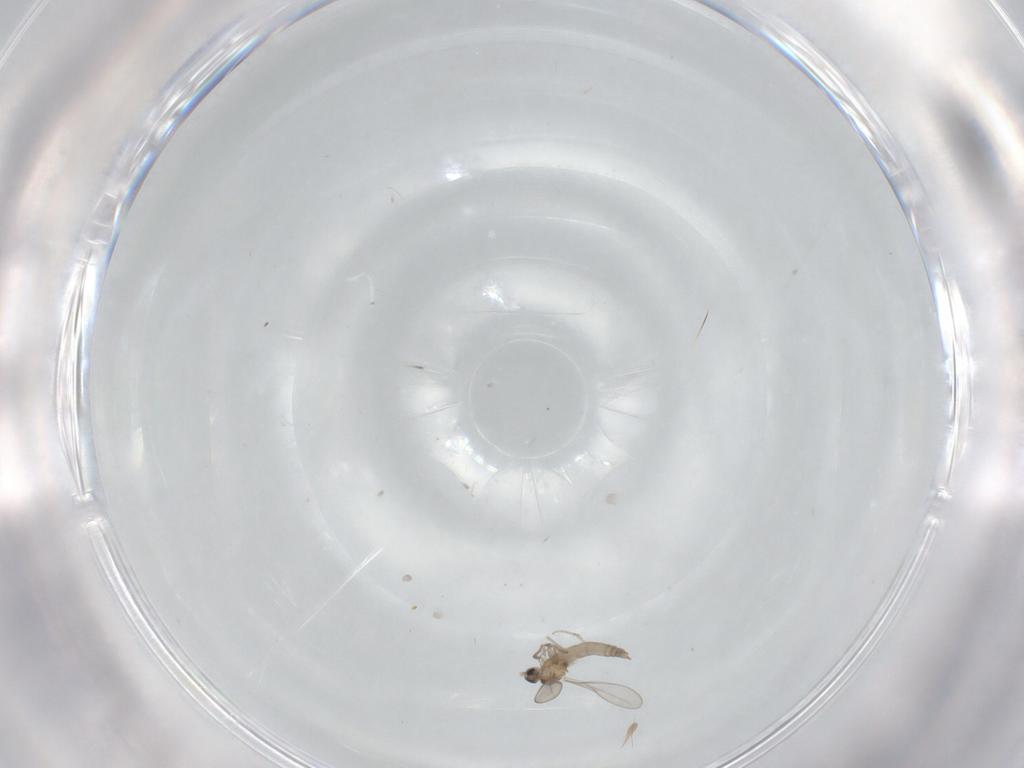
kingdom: Animalia
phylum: Arthropoda
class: Insecta
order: Diptera
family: Cecidomyiidae
